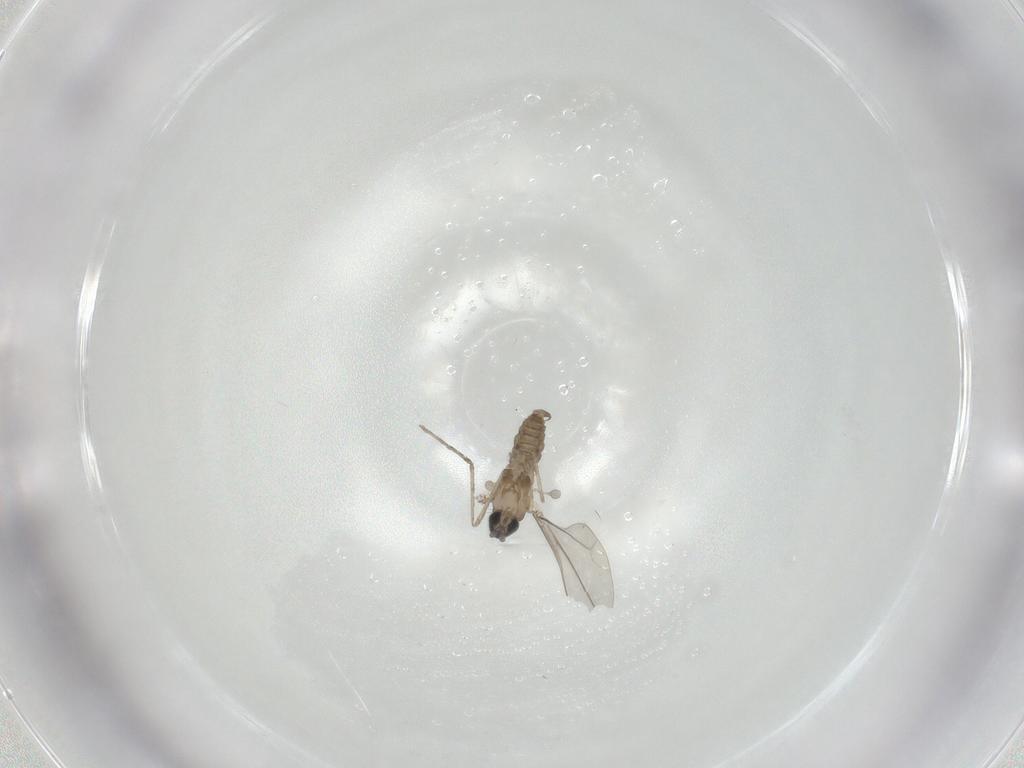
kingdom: Animalia
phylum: Arthropoda
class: Insecta
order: Diptera
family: Cecidomyiidae
